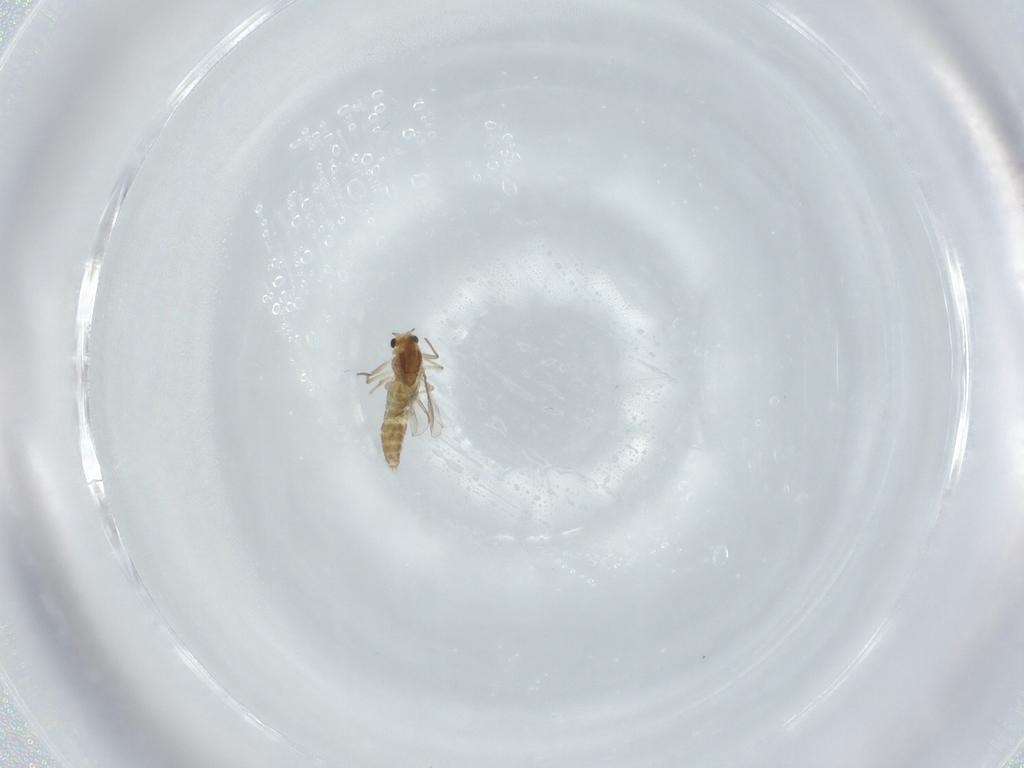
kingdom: Animalia
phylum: Arthropoda
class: Insecta
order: Diptera
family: Chironomidae
